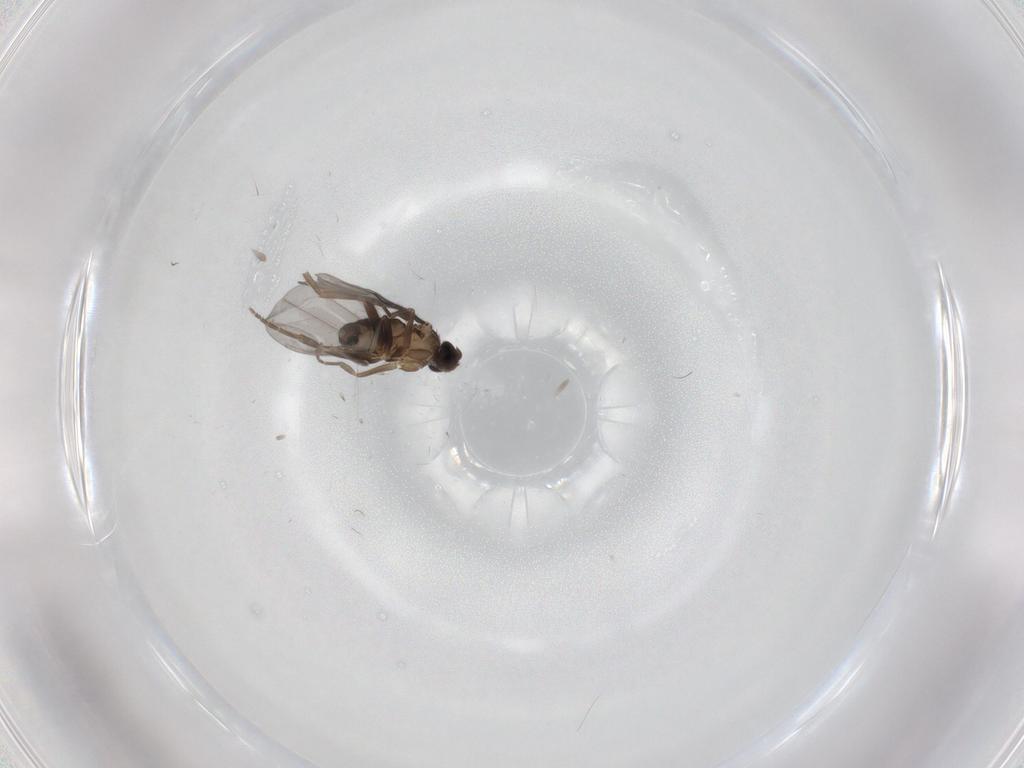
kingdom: Animalia
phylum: Arthropoda
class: Insecta
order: Diptera
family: Phoridae
